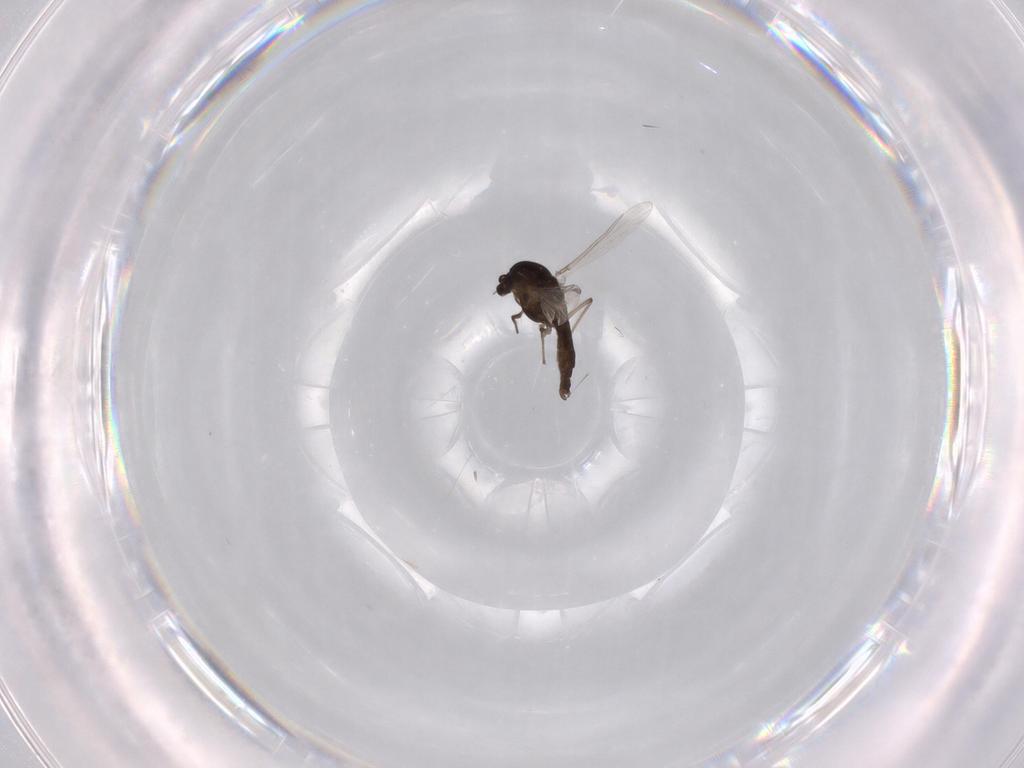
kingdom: Animalia
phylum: Arthropoda
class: Insecta
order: Diptera
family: Chironomidae
